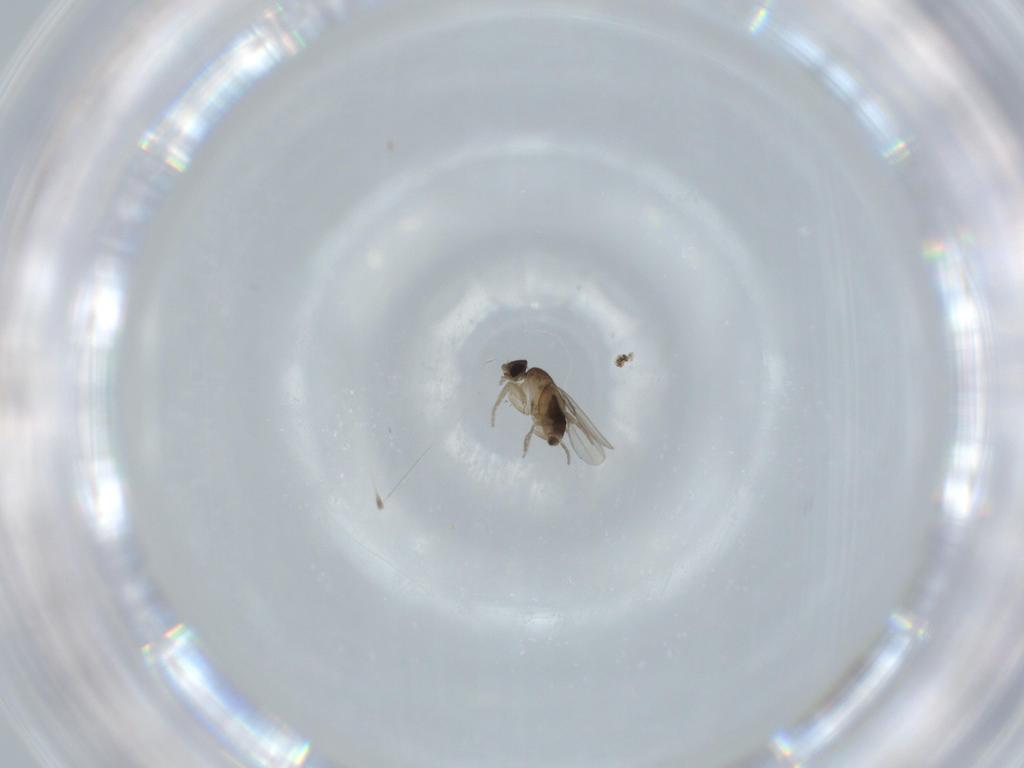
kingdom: Animalia
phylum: Arthropoda
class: Insecta
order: Diptera
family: Phoridae
